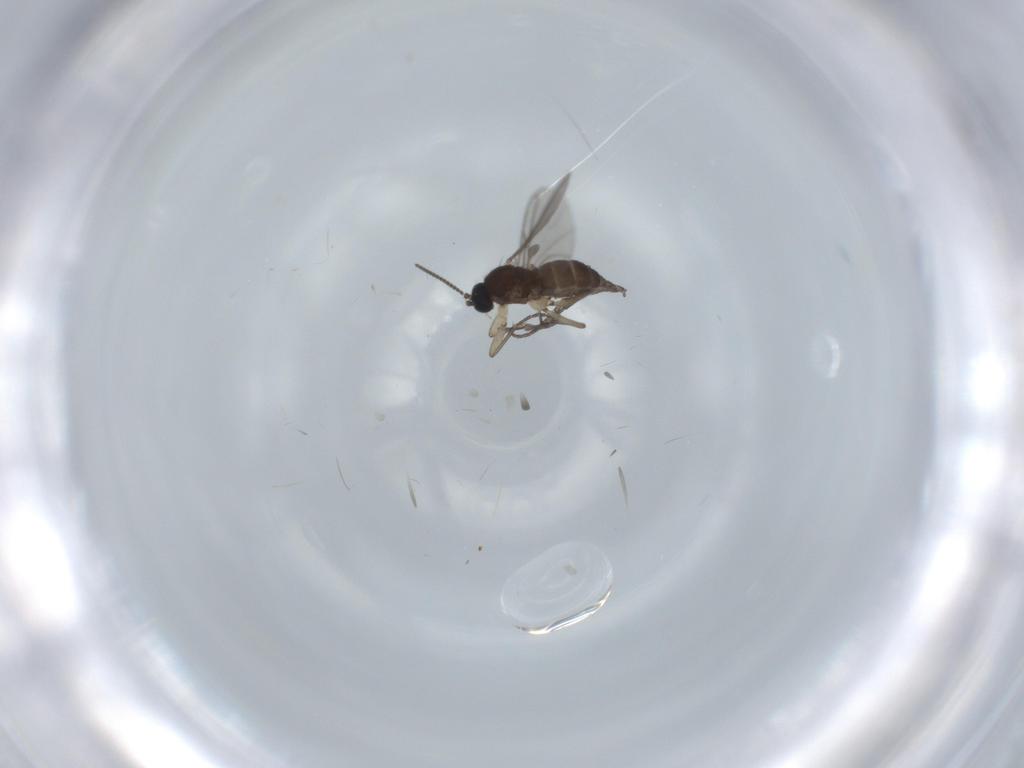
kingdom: Animalia
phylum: Arthropoda
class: Insecta
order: Diptera
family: Sciaridae
